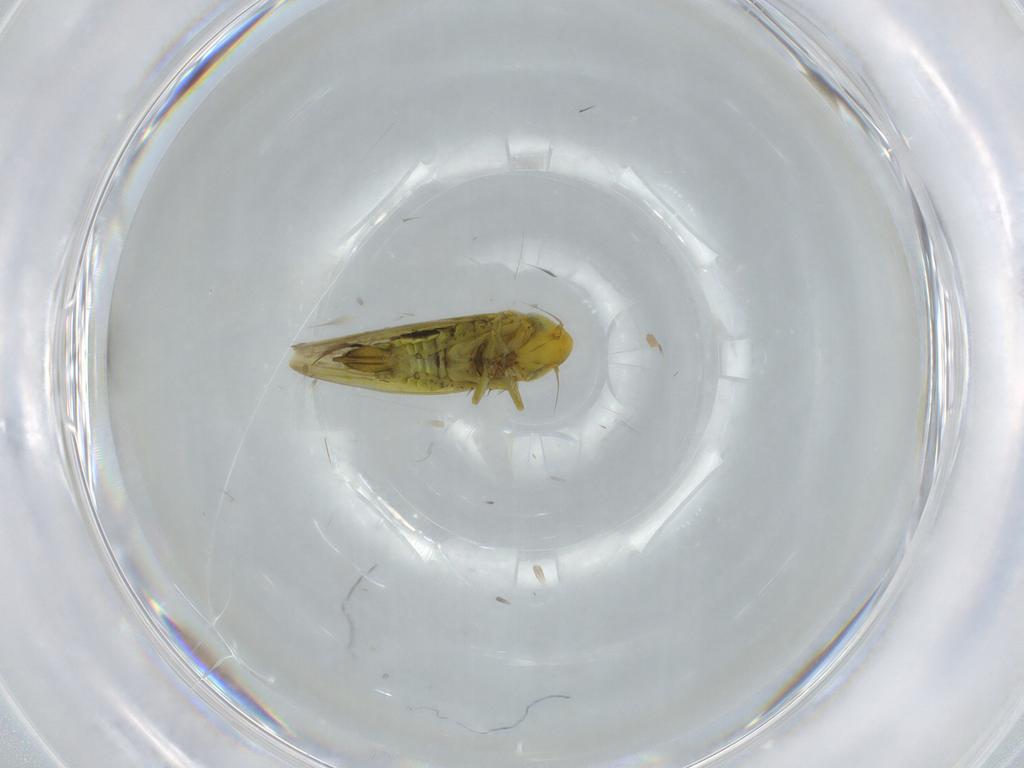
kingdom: Animalia
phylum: Arthropoda
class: Insecta
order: Hemiptera
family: Cicadellidae
